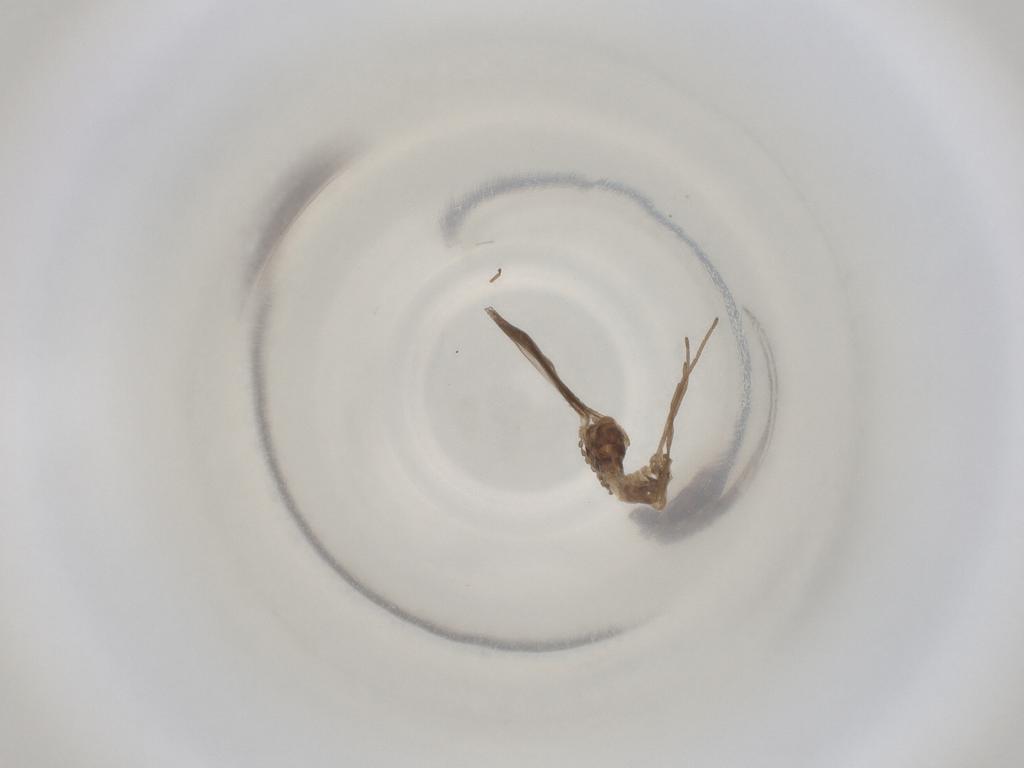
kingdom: Animalia
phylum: Arthropoda
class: Insecta
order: Diptera
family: Cecidomyiidae
